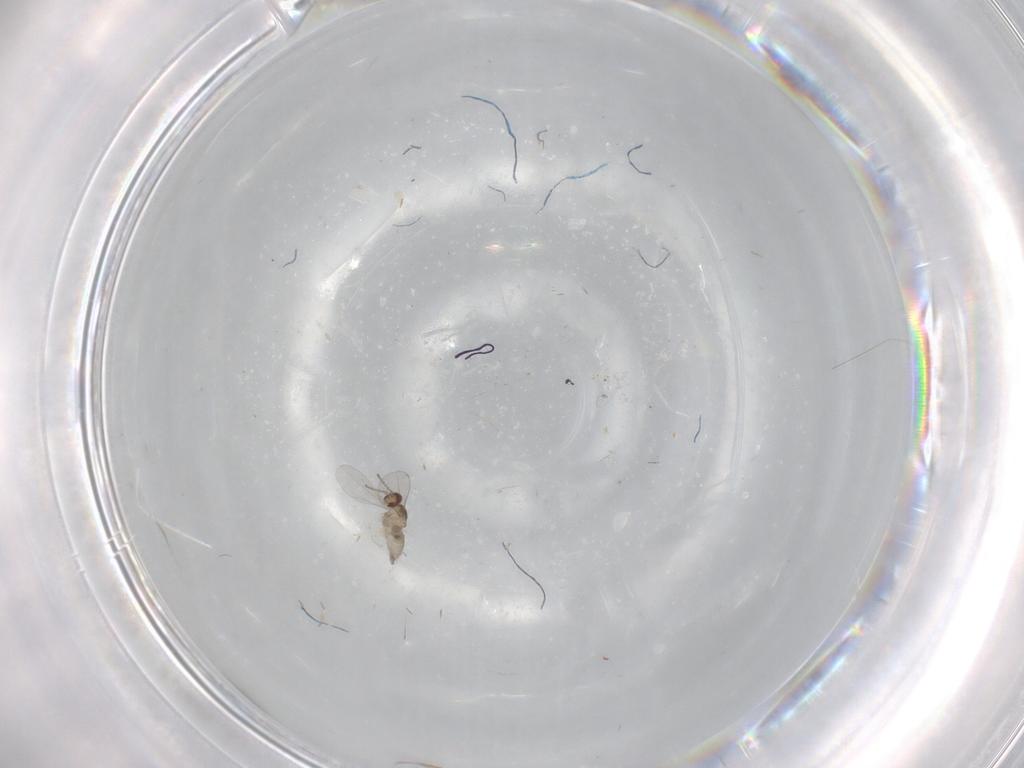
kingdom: Animalia
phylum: Arthropoda
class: Insecta
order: Diptera
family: Cecidomyiidae
